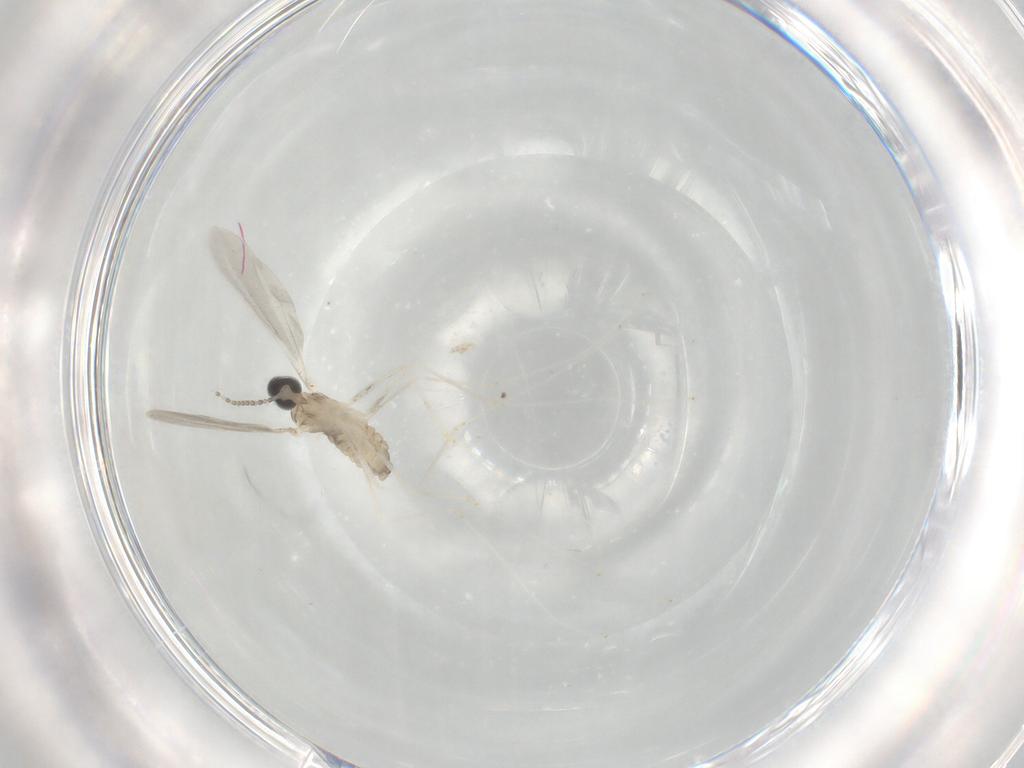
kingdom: Animalia
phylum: Arthropoda
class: Insecta
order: Diptera
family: Cecidomyiidae
